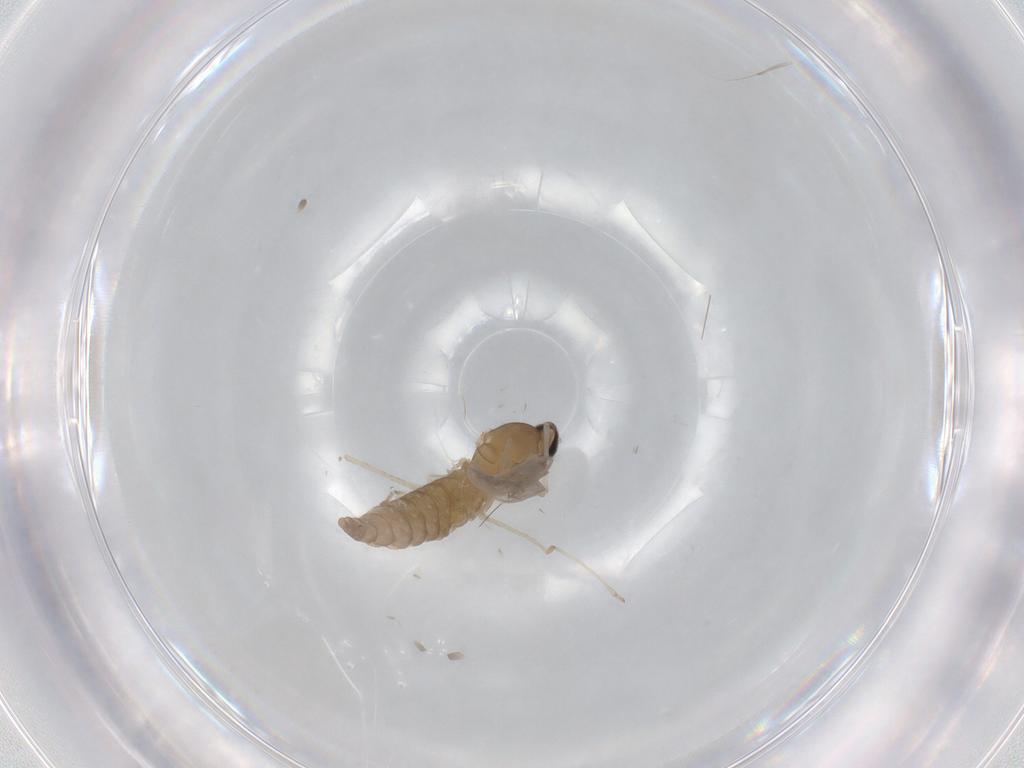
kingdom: Animalia
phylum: Arthropoda
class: Insecta
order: Diptera
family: Cecidomyiidae
